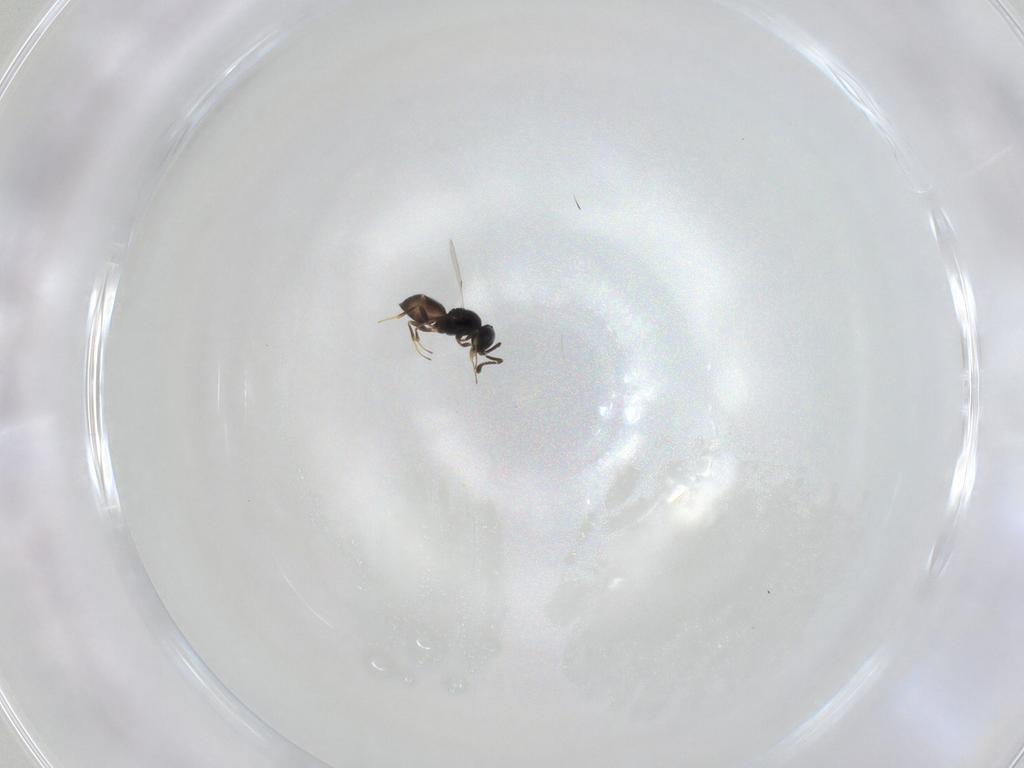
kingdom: Animalia
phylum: Arthropoda
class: Insecta
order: Hymenoptera
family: Scelionidae
